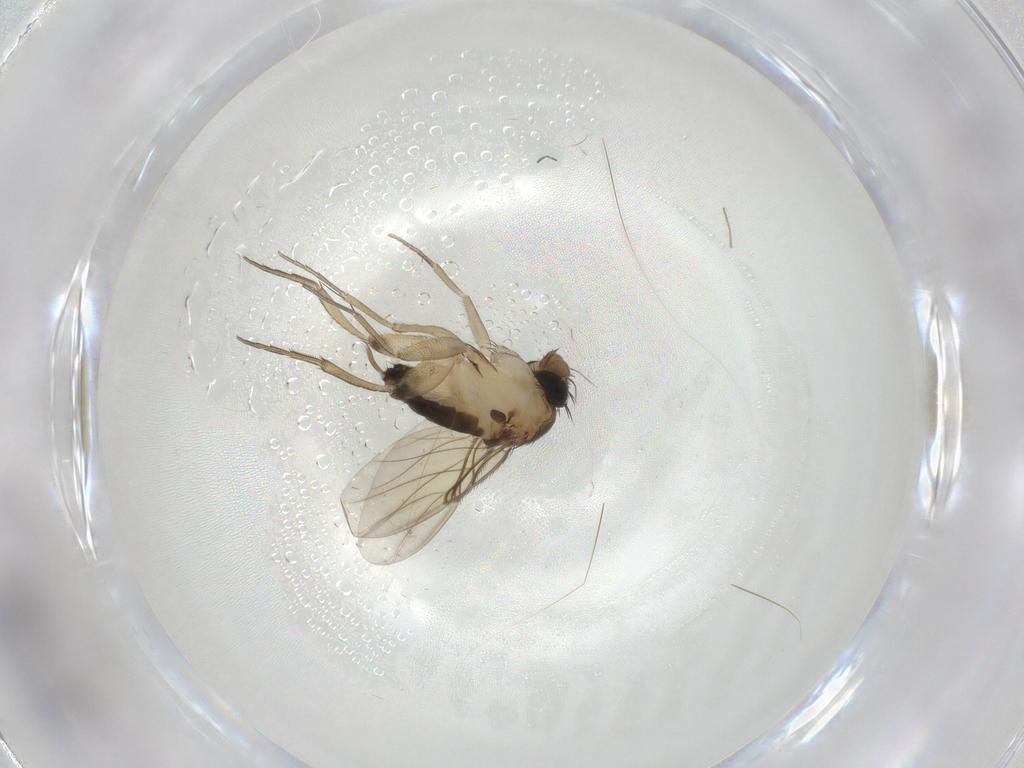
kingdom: Animalia
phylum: Arthropoda
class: Insecta
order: Diptera
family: Phoridae
